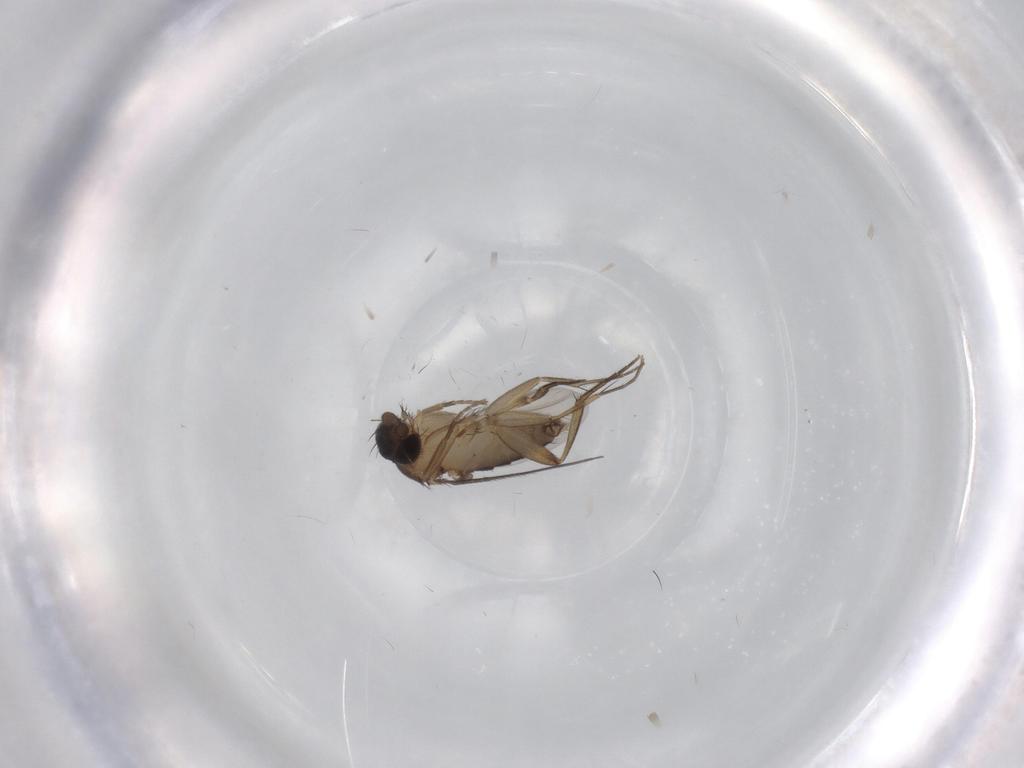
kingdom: Animalia
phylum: Arthropoda
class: Insecta
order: Diptera
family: Phoridae
